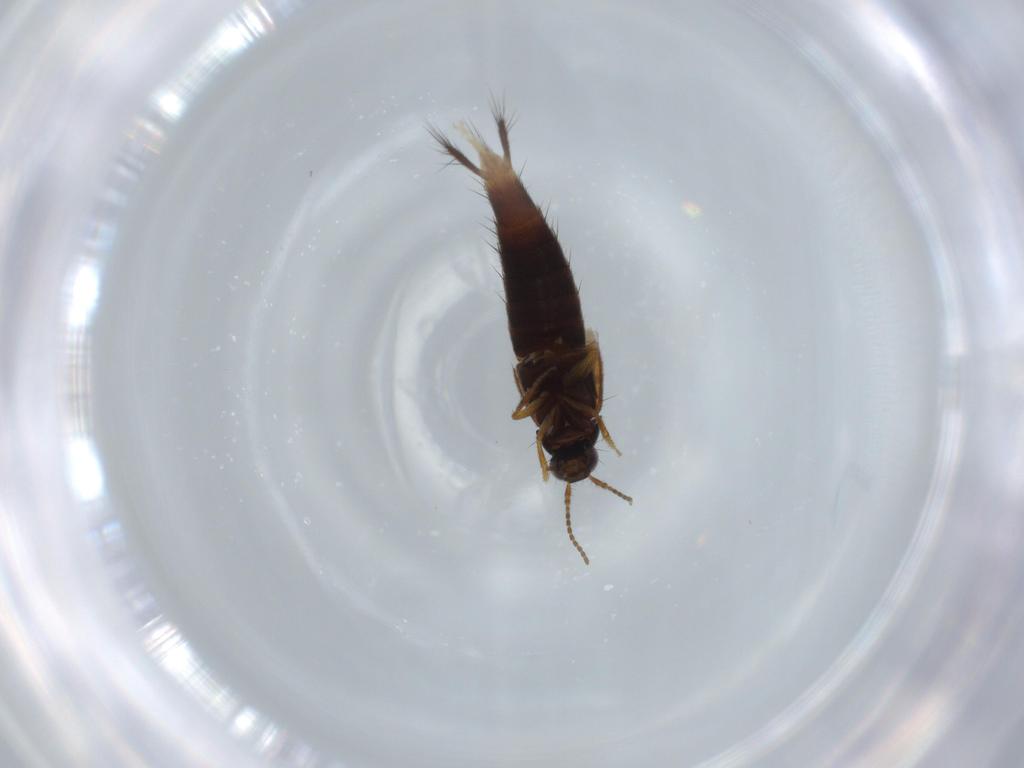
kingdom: Animalia
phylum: Arthropoda
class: Insecta
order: Coleoptera
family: Staphylinidae
